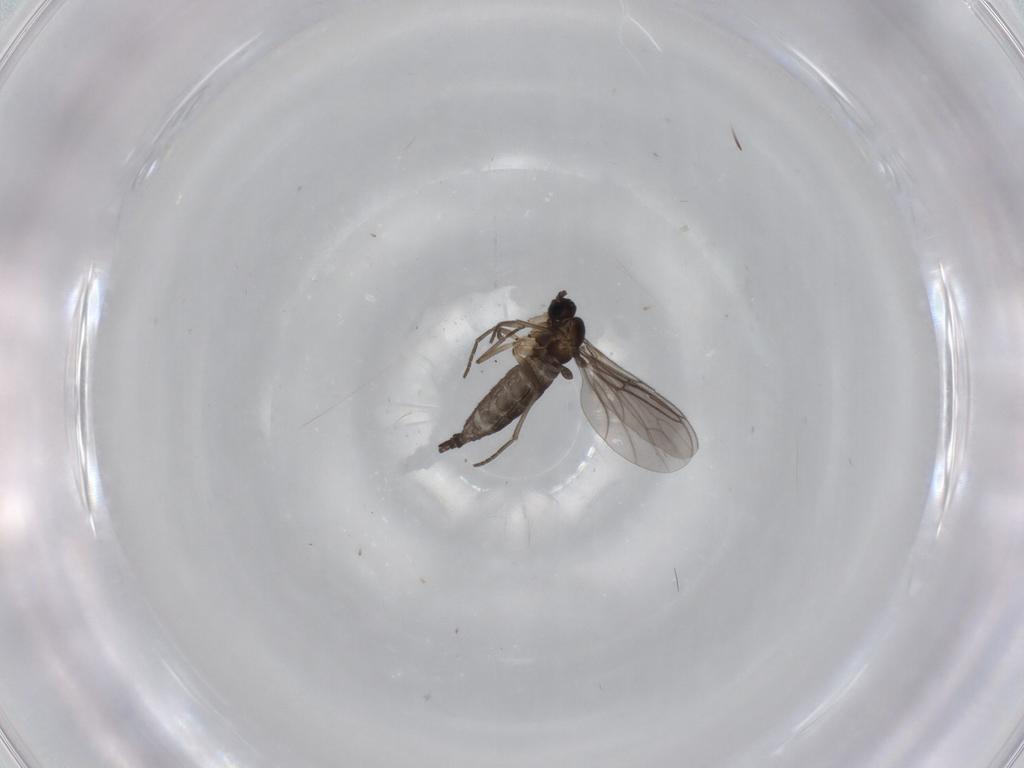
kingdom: Animalia
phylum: Arthropoda
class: Insecta
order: Diptera
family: Sciaridae
